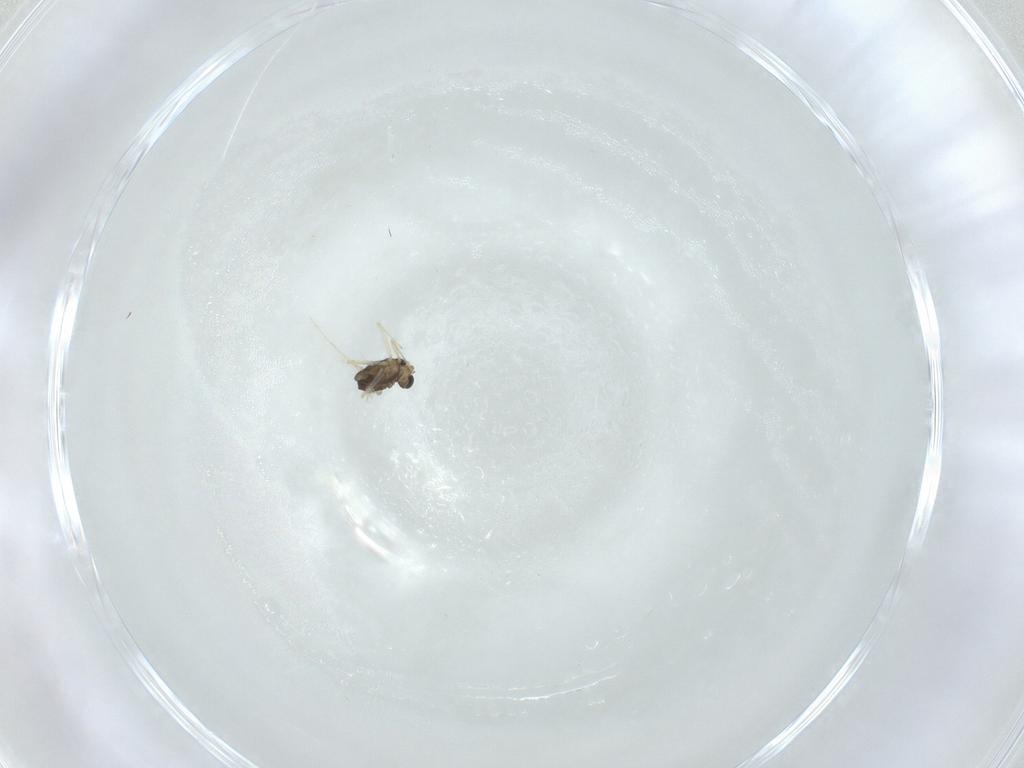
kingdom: Animalia
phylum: Arthropoda
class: Insecta
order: Diptera
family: Chironomidae
